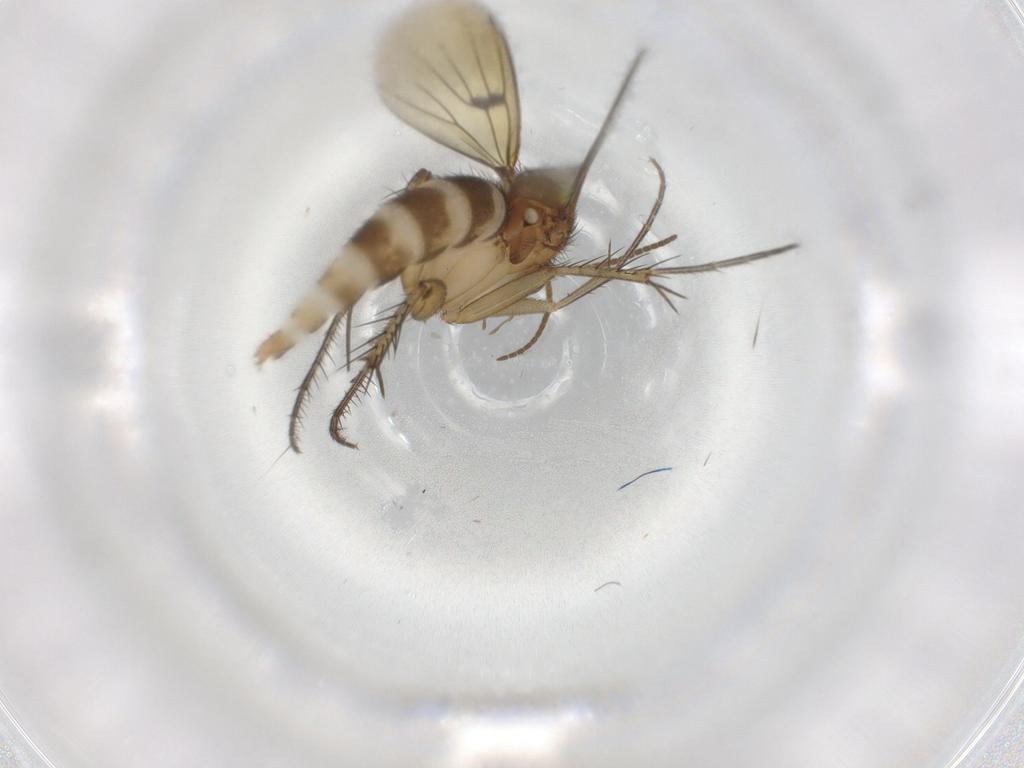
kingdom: Animalia
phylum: Arthropoda
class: Insecta
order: Diptera
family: Mycetophilidae
